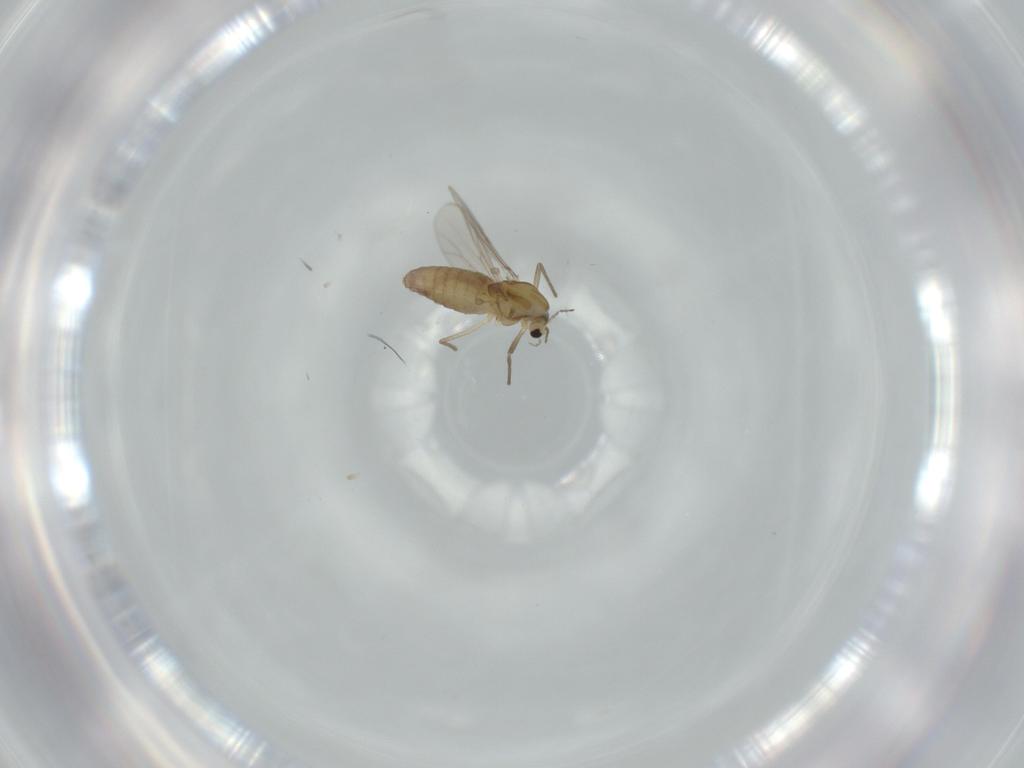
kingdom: Animalia
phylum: Arthropoda
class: Insecta
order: Diptera
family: Chironomidae
